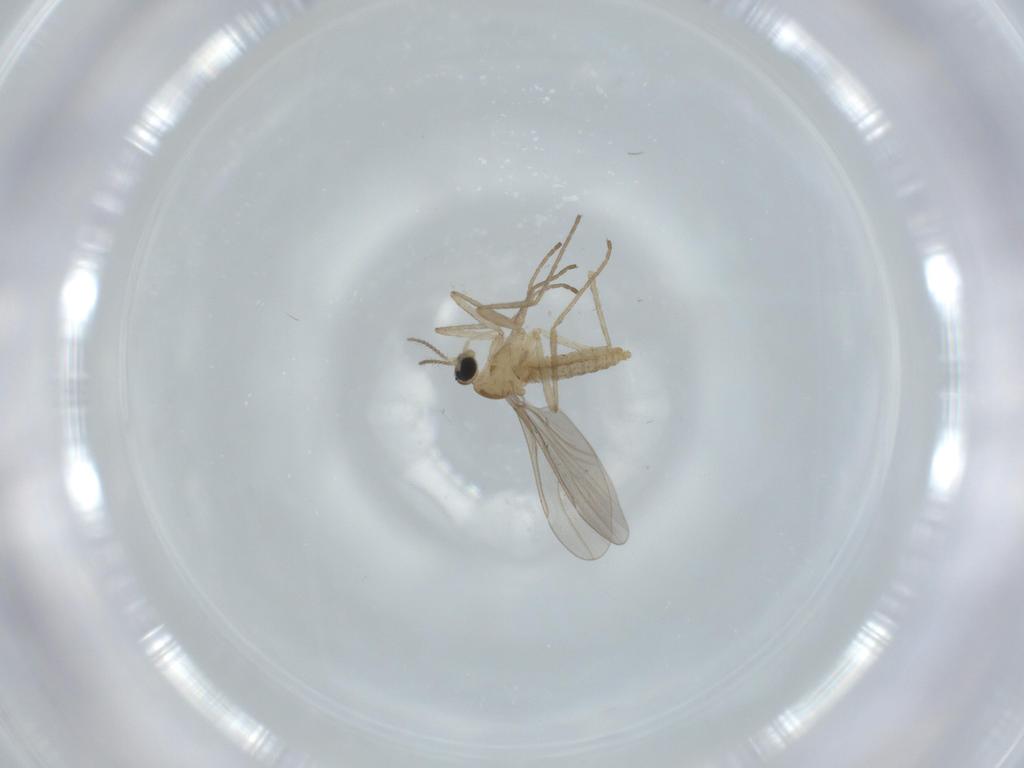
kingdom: Animalia
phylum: Arthropoda
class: Insecta
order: Diptera
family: Cecidomyiidae
